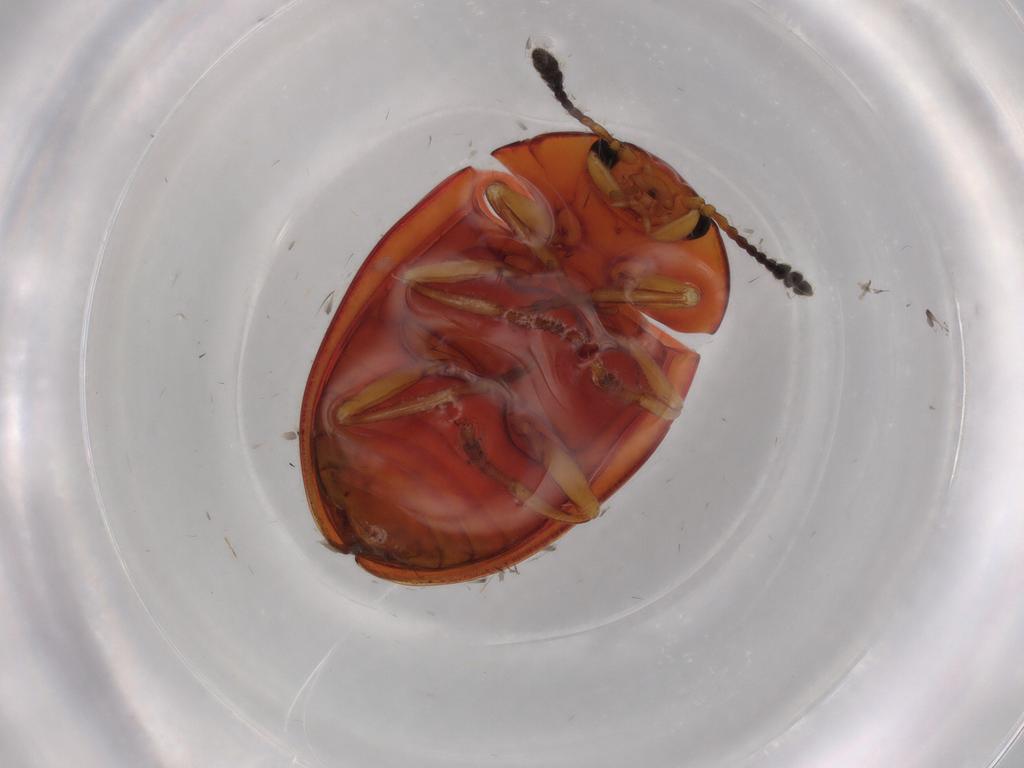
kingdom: Animalia
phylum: Arthropoda
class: Insecta
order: Coleoptera
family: Erotylidae
